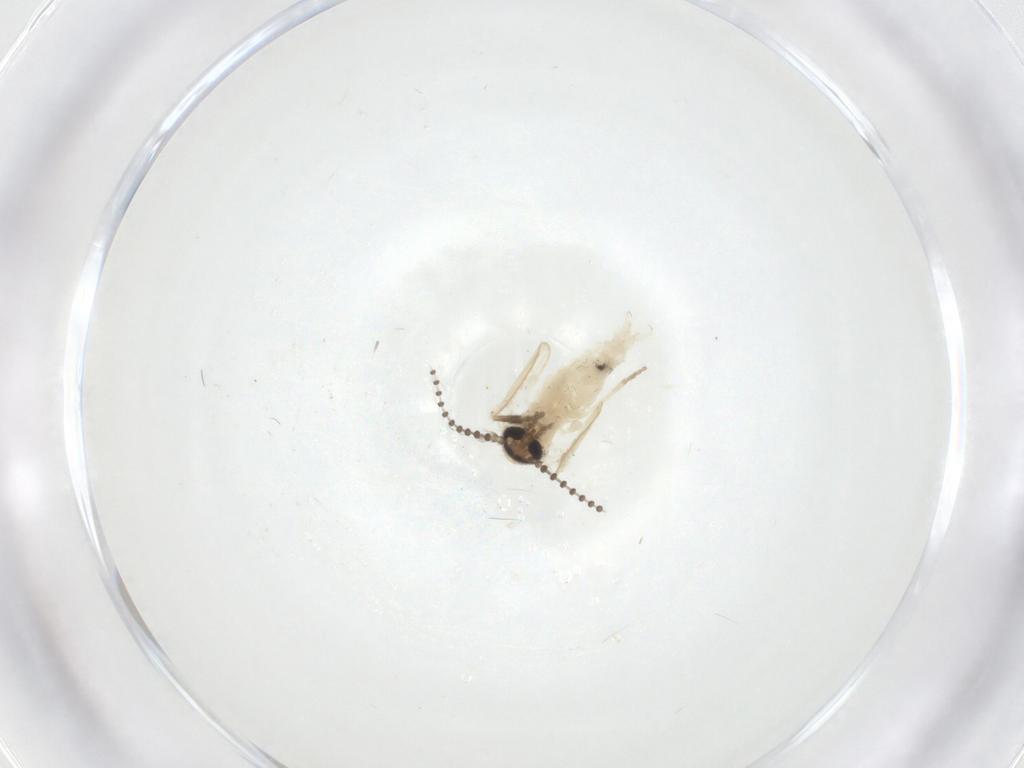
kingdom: Animalia
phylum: Arthropoda
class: Insecta
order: Diptera
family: Psychodidae
